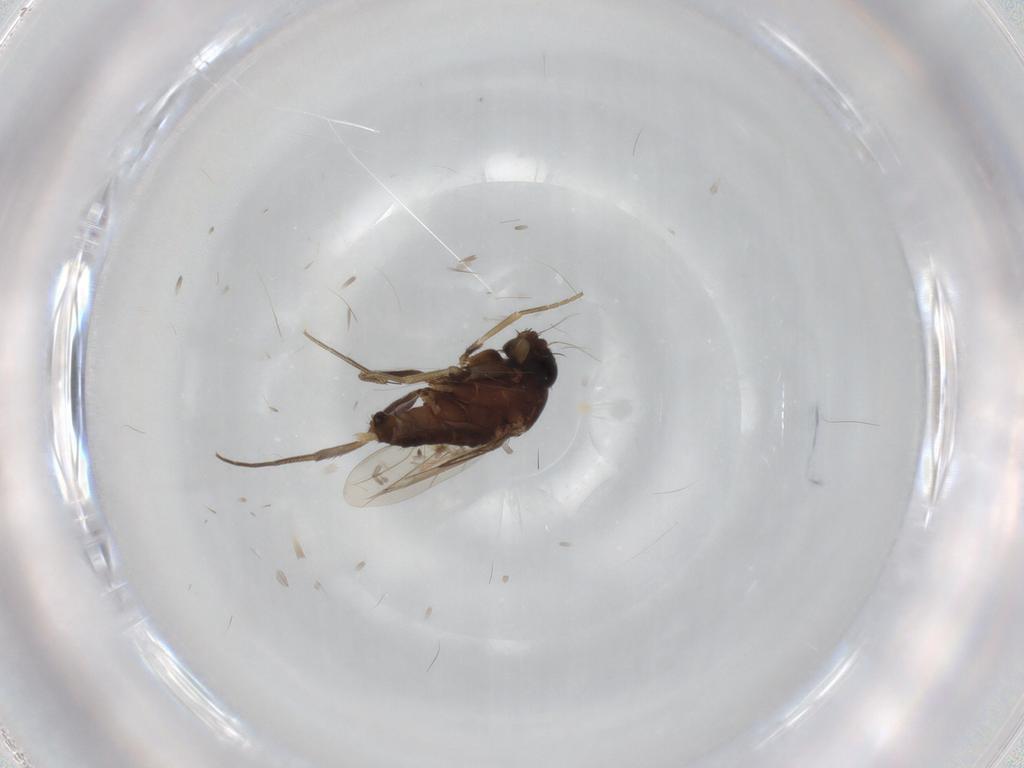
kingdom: Animalia
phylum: Arthropoda
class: Insecta
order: Diptera
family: Phoridae
